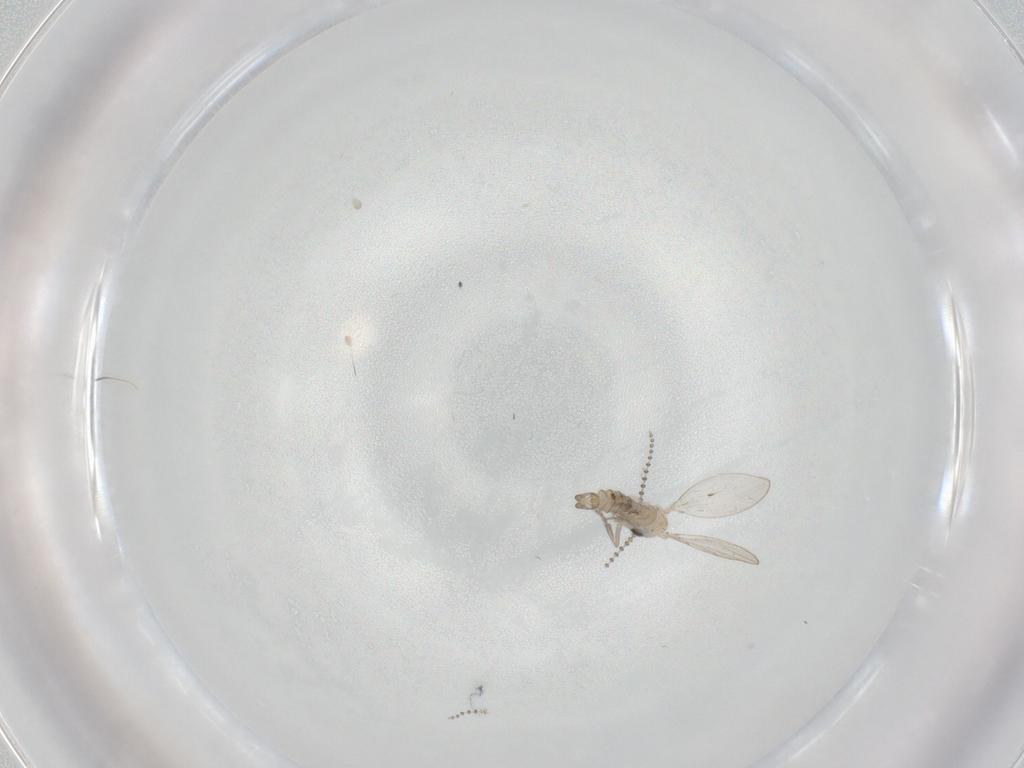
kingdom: Animalia
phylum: Arthropoda
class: Insecta
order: Diptera
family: Psychodidae
